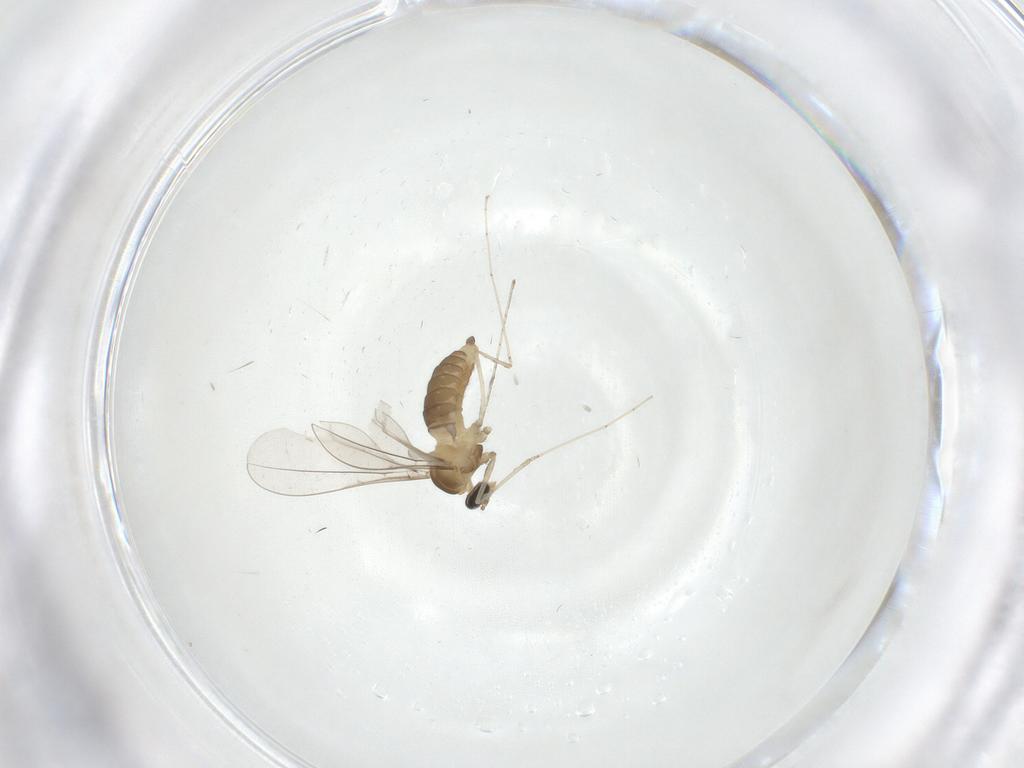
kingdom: Animalia
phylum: Arthropoda
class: Insecta
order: Diptera
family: Cecidomyiidae
